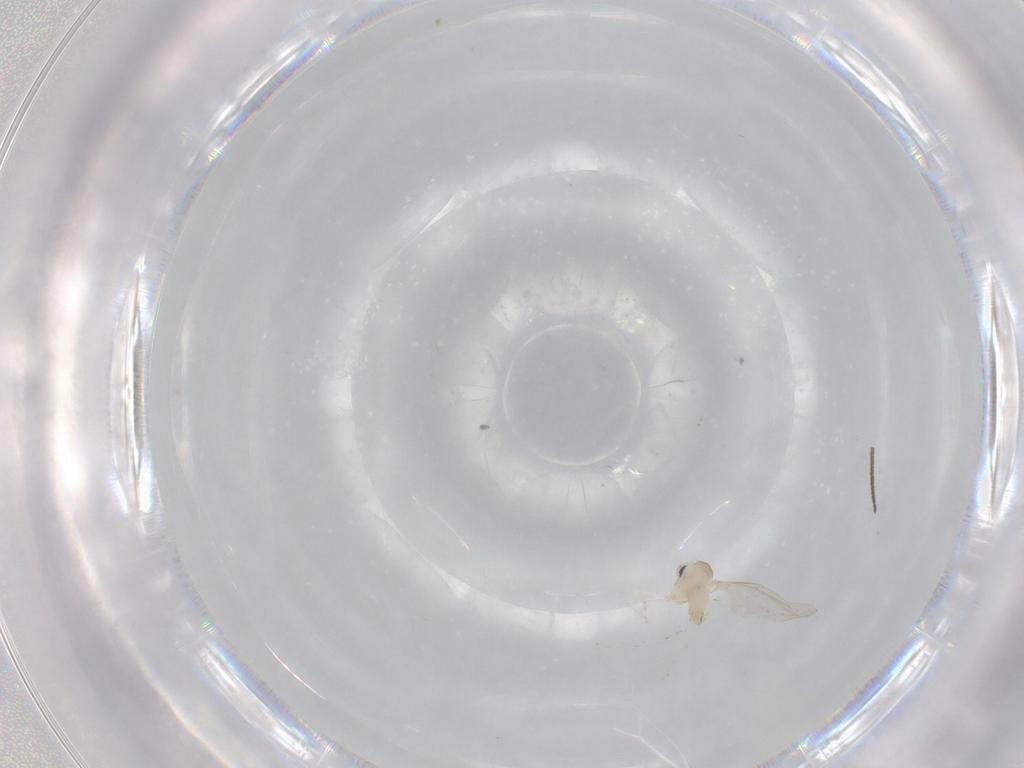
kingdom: Animalia
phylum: Arthropoda
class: Insecta
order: Diptera
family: Cecidomyiidae
